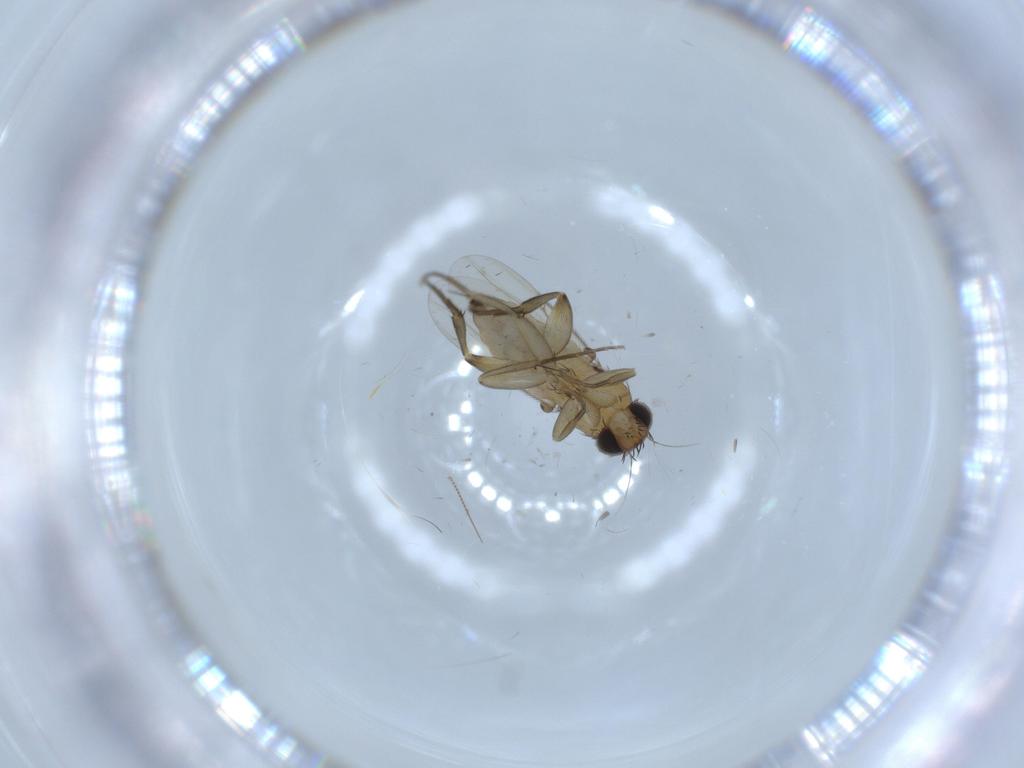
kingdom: Animalia
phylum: Arthropoda
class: Insecta
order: Diptera
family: Phoridae
